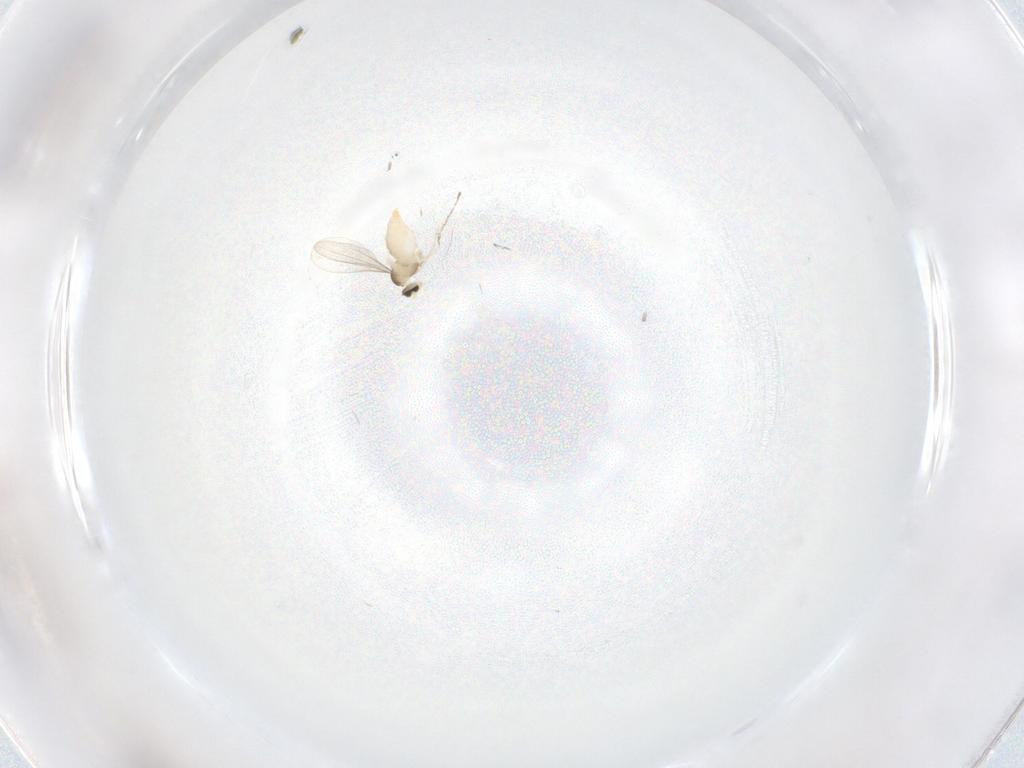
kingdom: Animalia
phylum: Arthropoda
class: Insecta
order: Diptera
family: Cecidomyiidae
